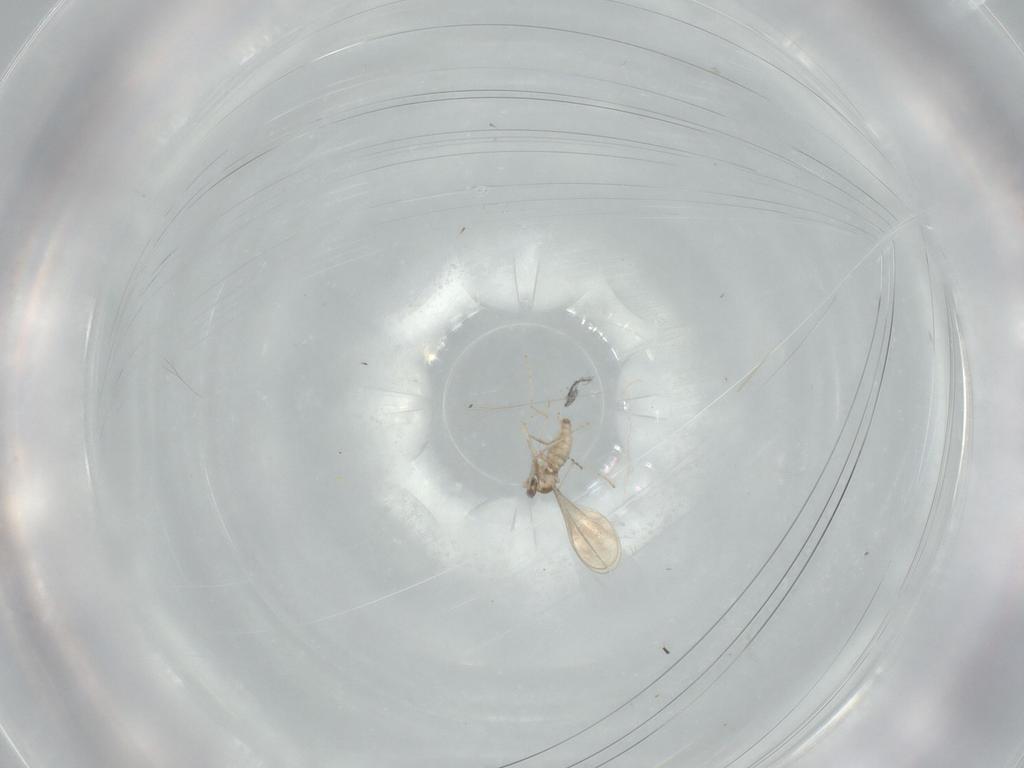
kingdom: Animalia
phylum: Arthropoda
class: Insecta
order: Diptera
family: Cecidomyiidae
